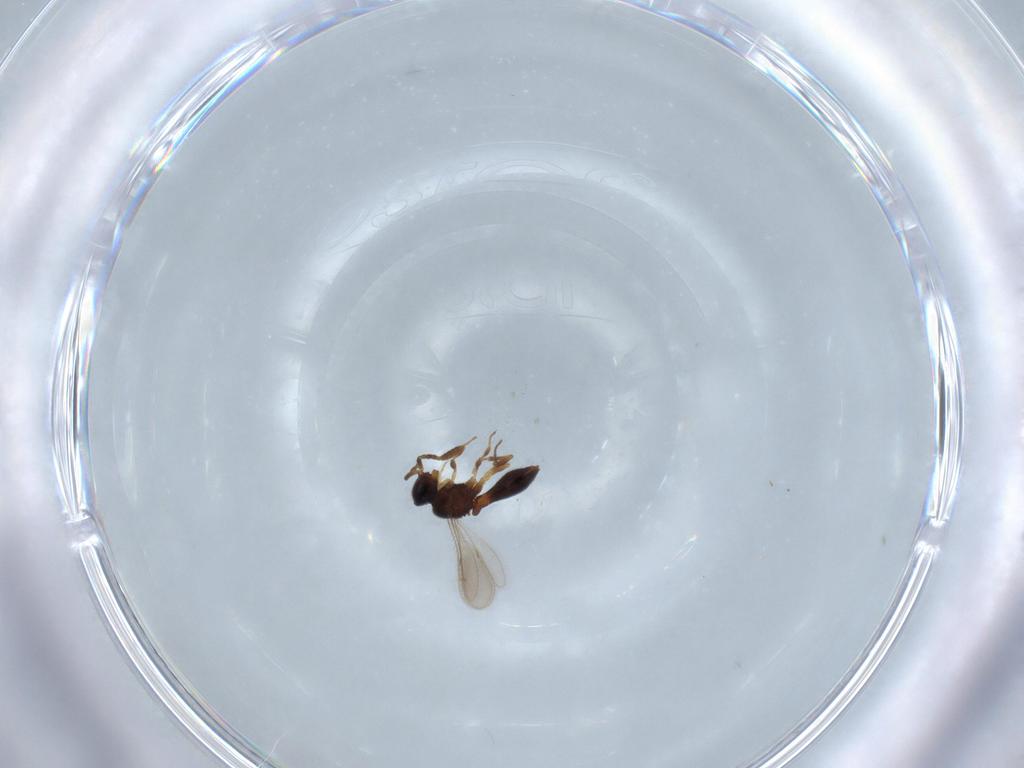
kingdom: Animalia
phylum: Arthropoda
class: Insecta
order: Hymenoptera
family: Scelionidae
